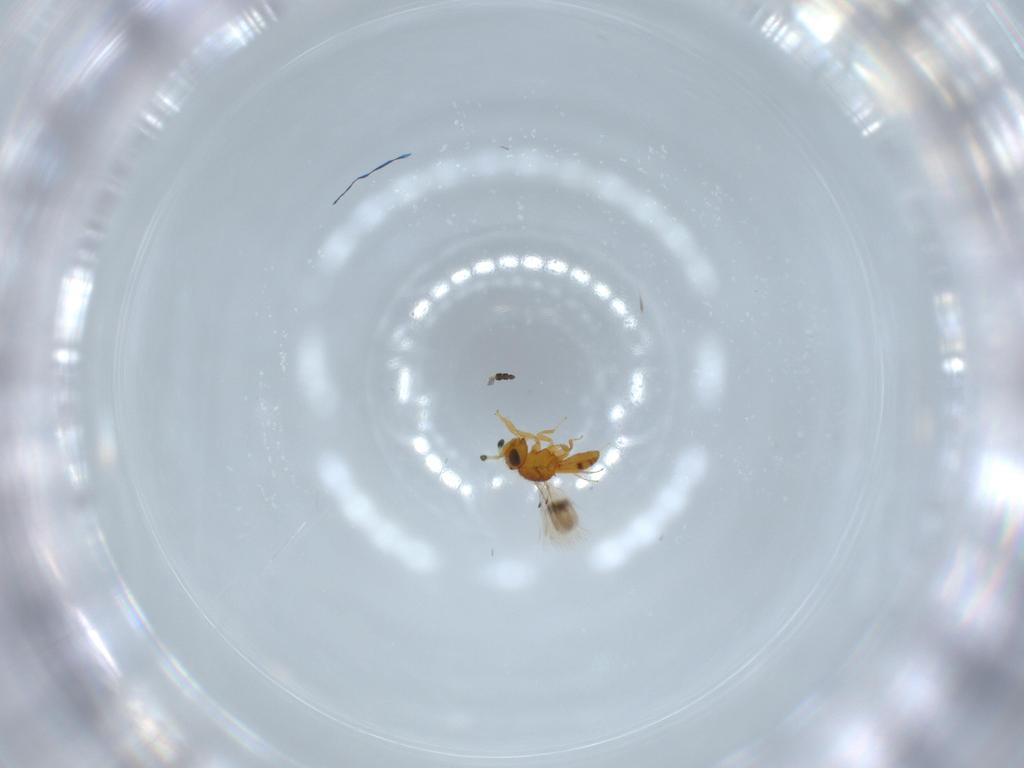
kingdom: Animalia
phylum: Arthropoda
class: Insecta
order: Hymenoptera
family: Scelionidae
